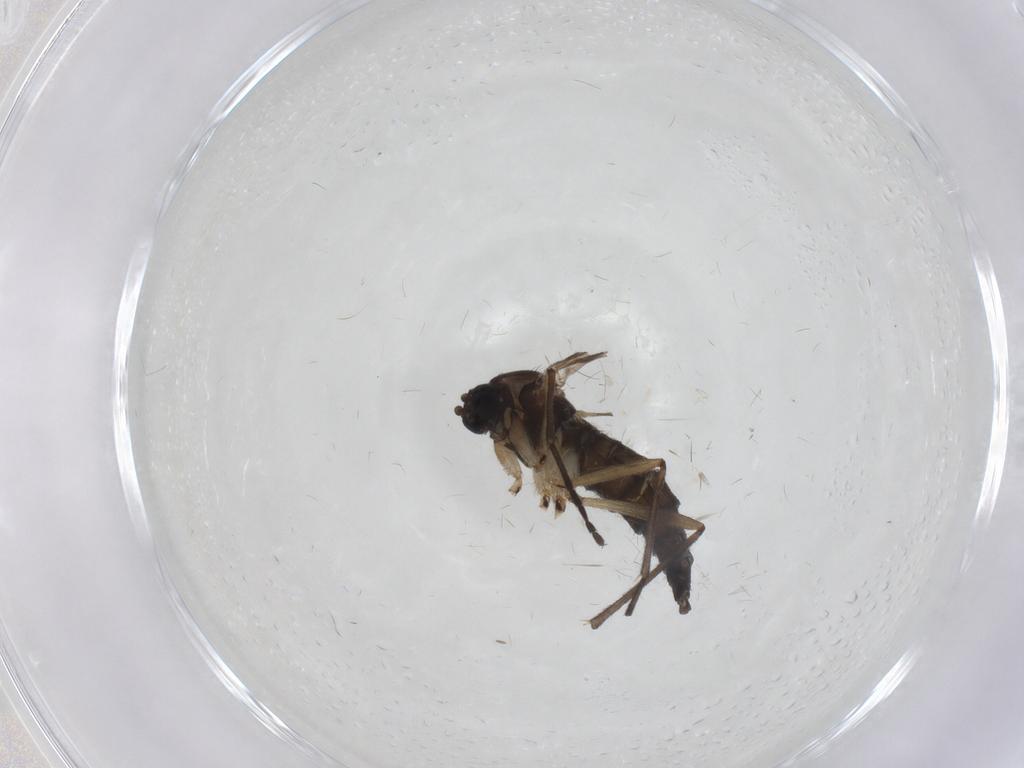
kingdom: Animalia
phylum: Arthropoda
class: Insecta
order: Diptera
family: Sciaridae
